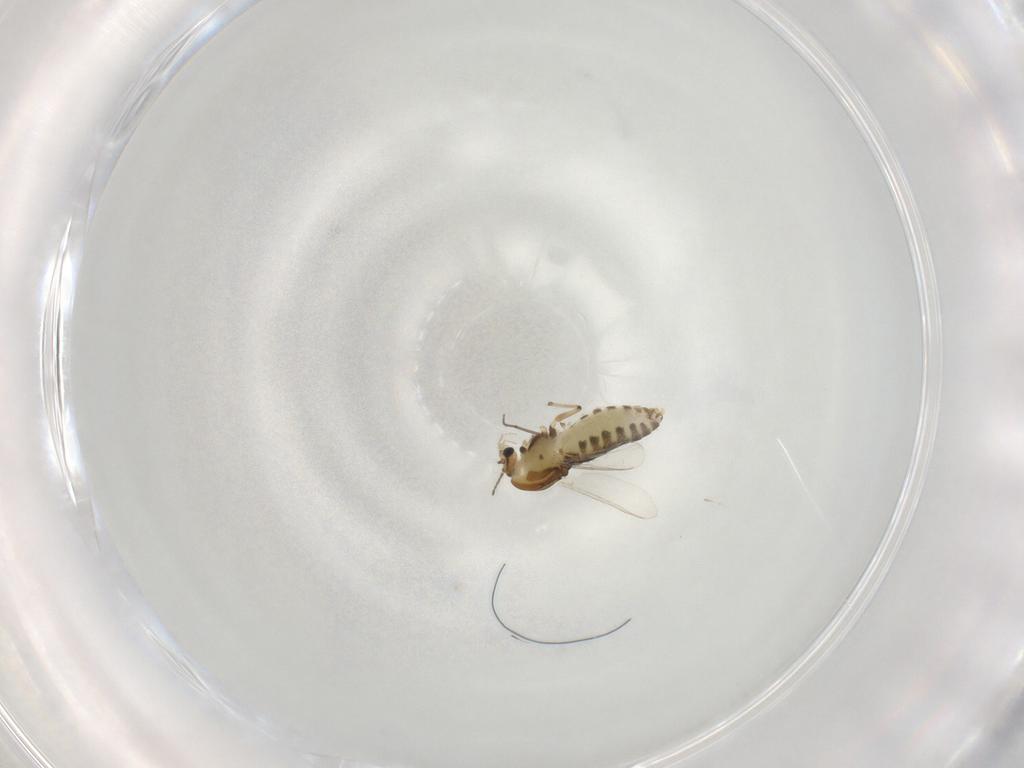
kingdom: Animalia
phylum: Arthropoda
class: Insecta
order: Diptera
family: Chironomidae
